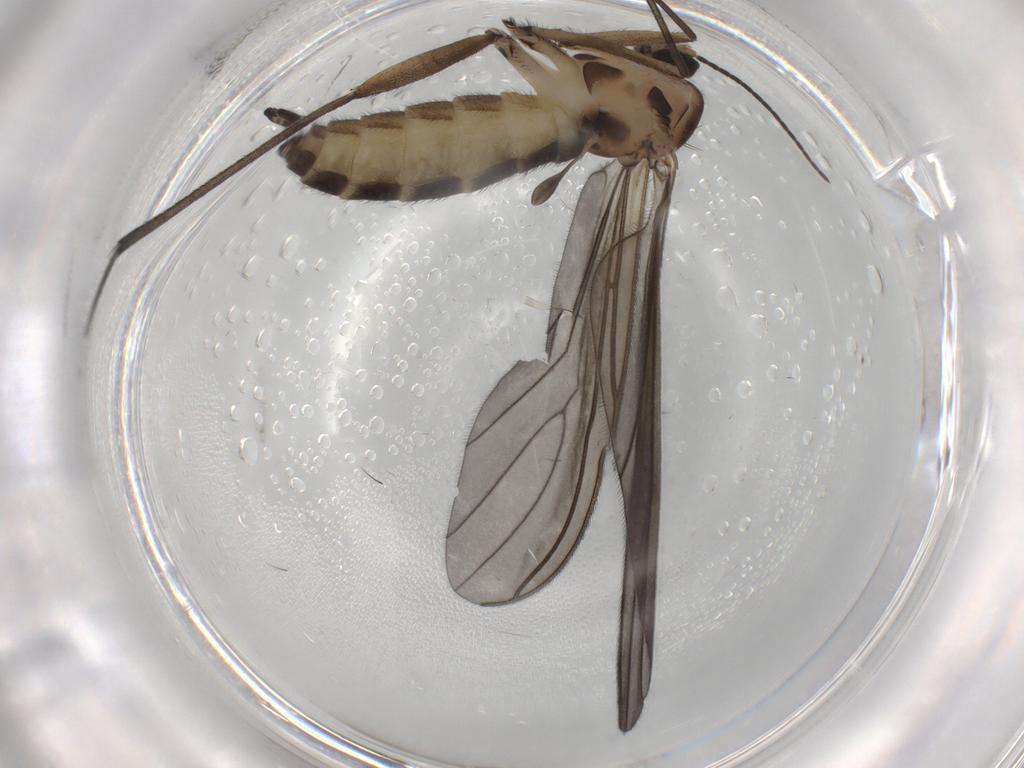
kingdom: Animalia
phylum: Arthropoda
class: Insecta
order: Diptera
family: Sciaridae
